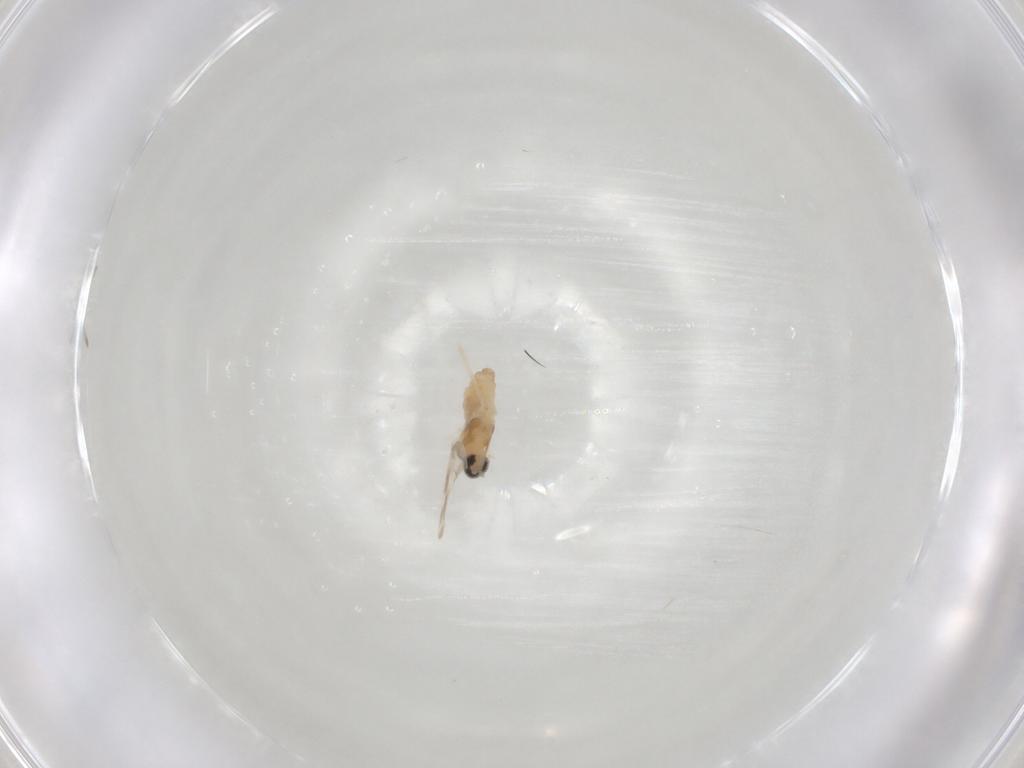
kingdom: Animalia
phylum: Arthropoda
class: Insecta
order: Diptera
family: Cecidomyiidae
